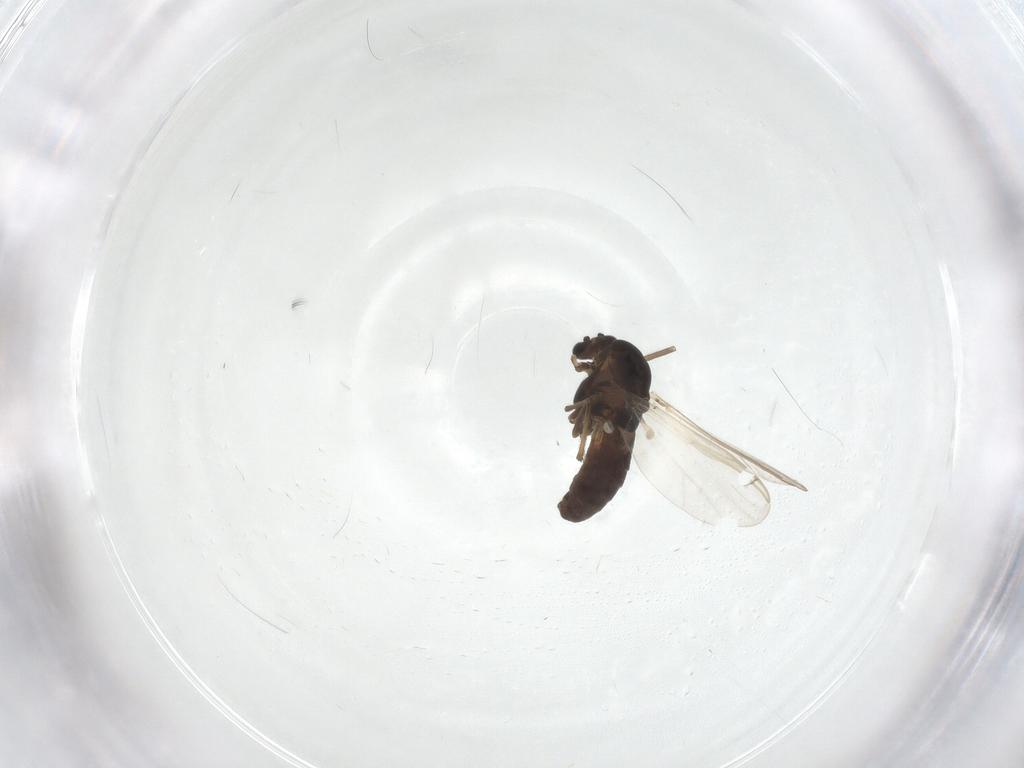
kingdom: Animalia
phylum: Arthropoda
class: Insecta
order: Diptera
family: Chironomidae
